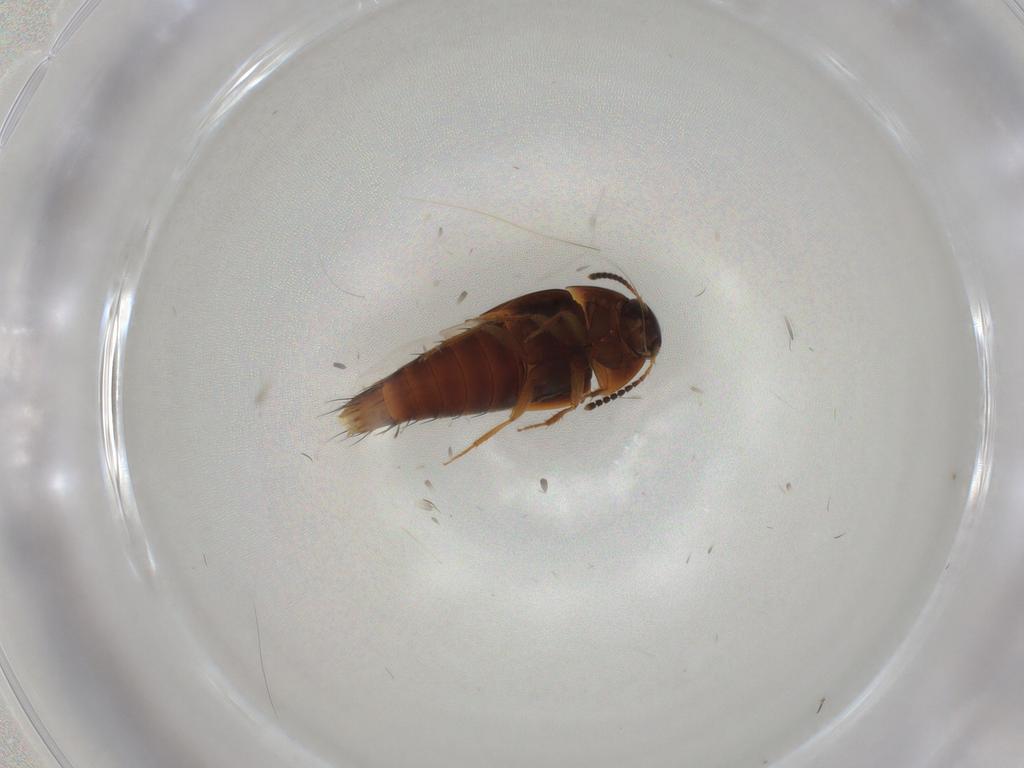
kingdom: Animalia
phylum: Arthropoda
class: Insecta
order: Coleoptera
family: Staphylinidae
